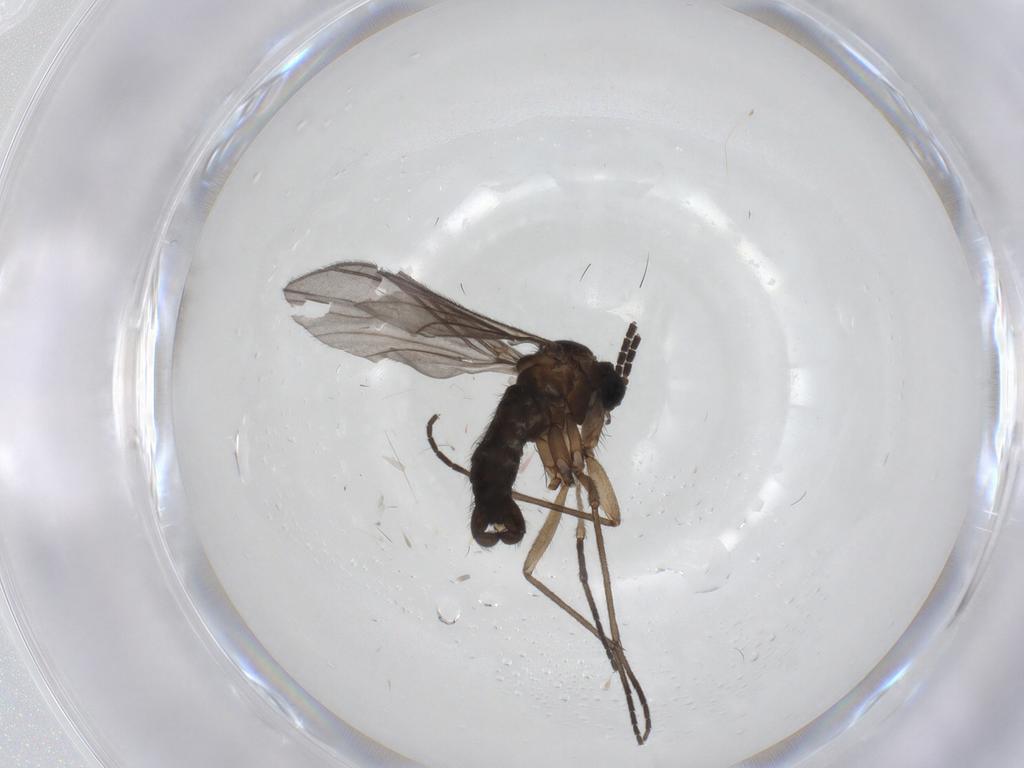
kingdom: Animalia
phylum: Arthropoda
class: Insecta
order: Diptera
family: Sciaridae
